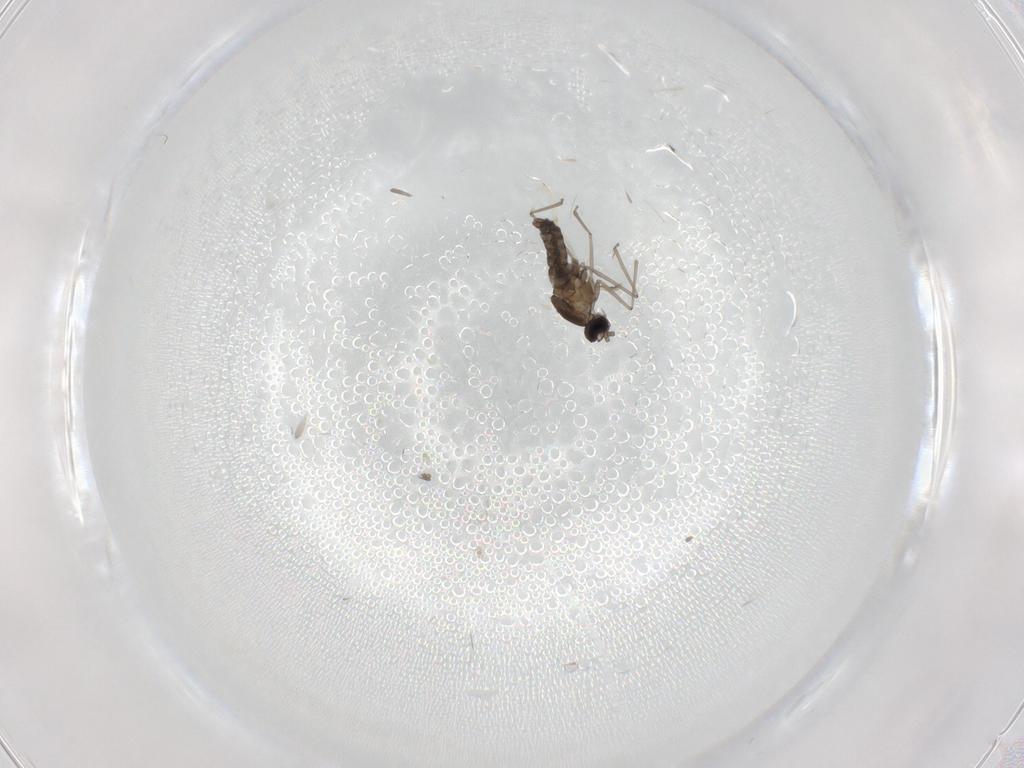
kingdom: Animalia
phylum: Arthropoda
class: Insecta
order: Diptera
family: Cecidomyiidae
